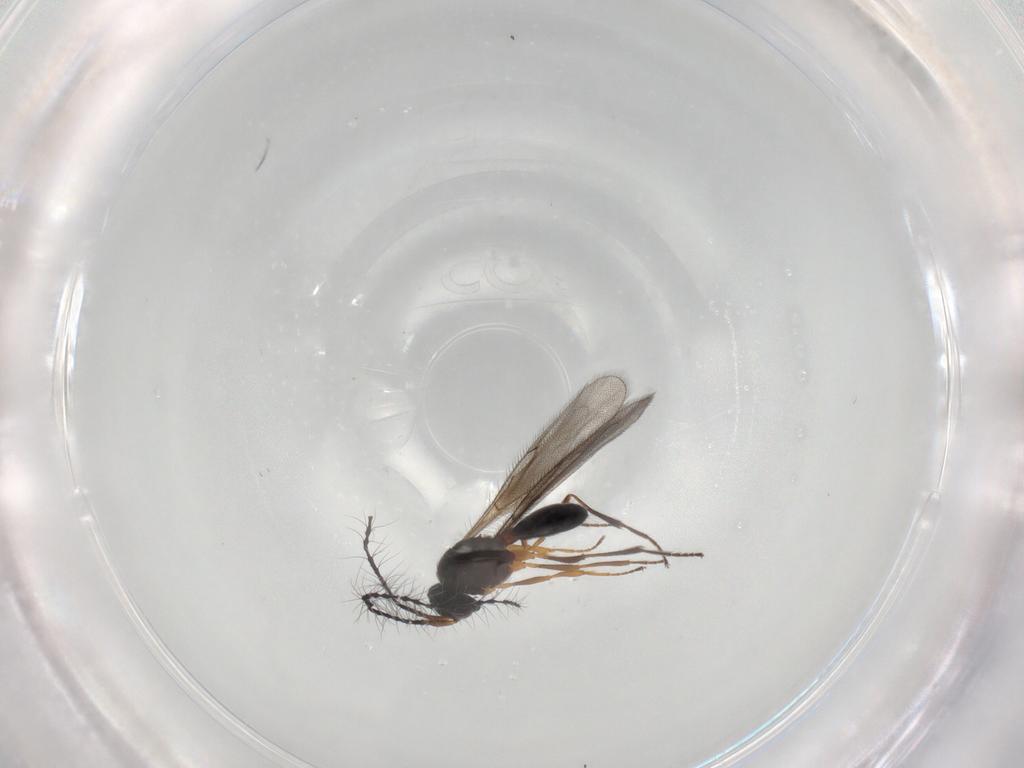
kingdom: Animalia
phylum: Arthropoda
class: Insecta
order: Hymenoptera
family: Scelionidae
